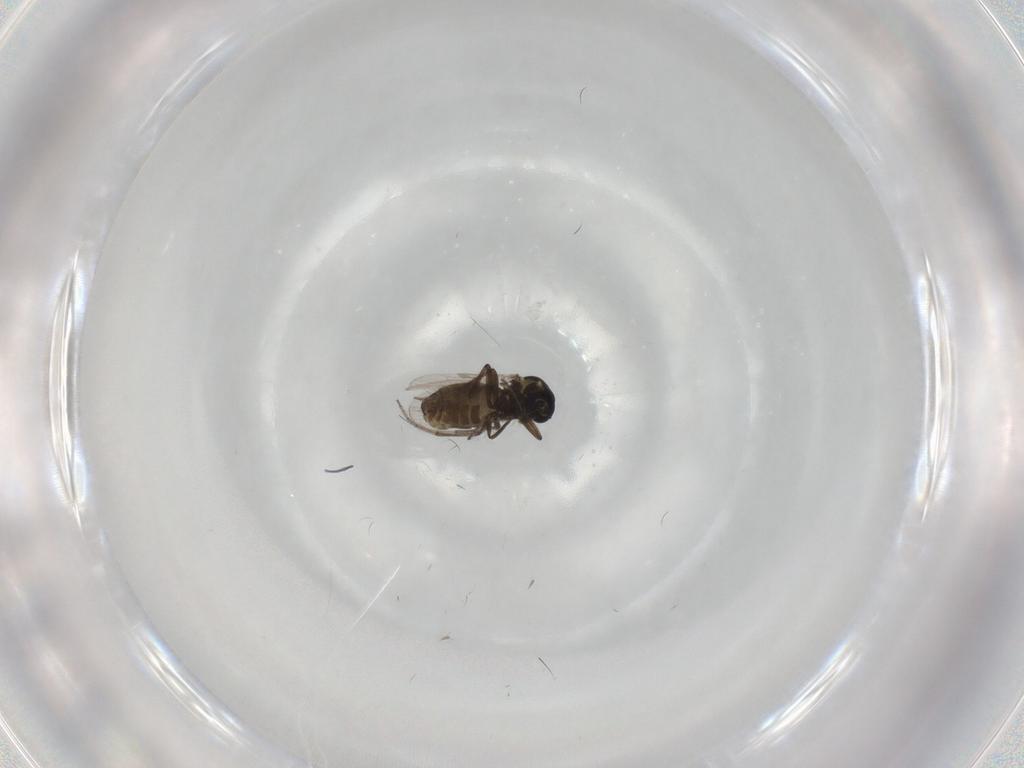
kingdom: Animalia
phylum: Arthropoda
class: Insecta
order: Diptera
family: Ceratopogonidae
